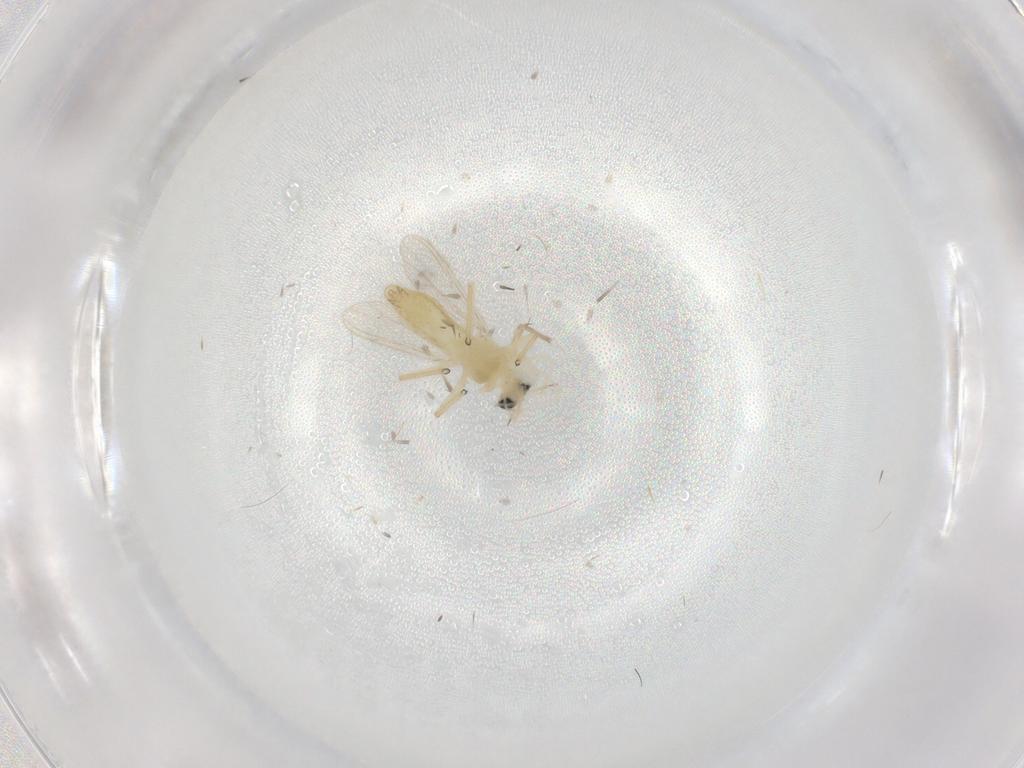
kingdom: Animalia
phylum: Arthropoda
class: Insecta
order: Diptera
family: Chironomidae
